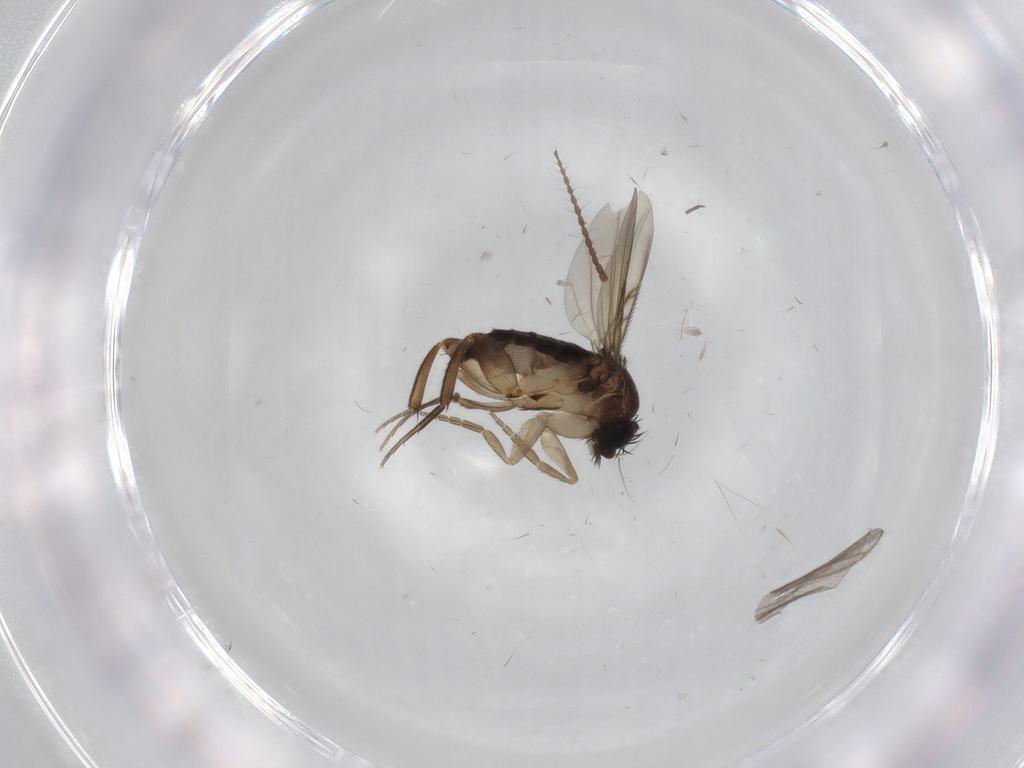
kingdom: Animalia
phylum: Arthropoda
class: Insecta
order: Diptera
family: Phoridae
